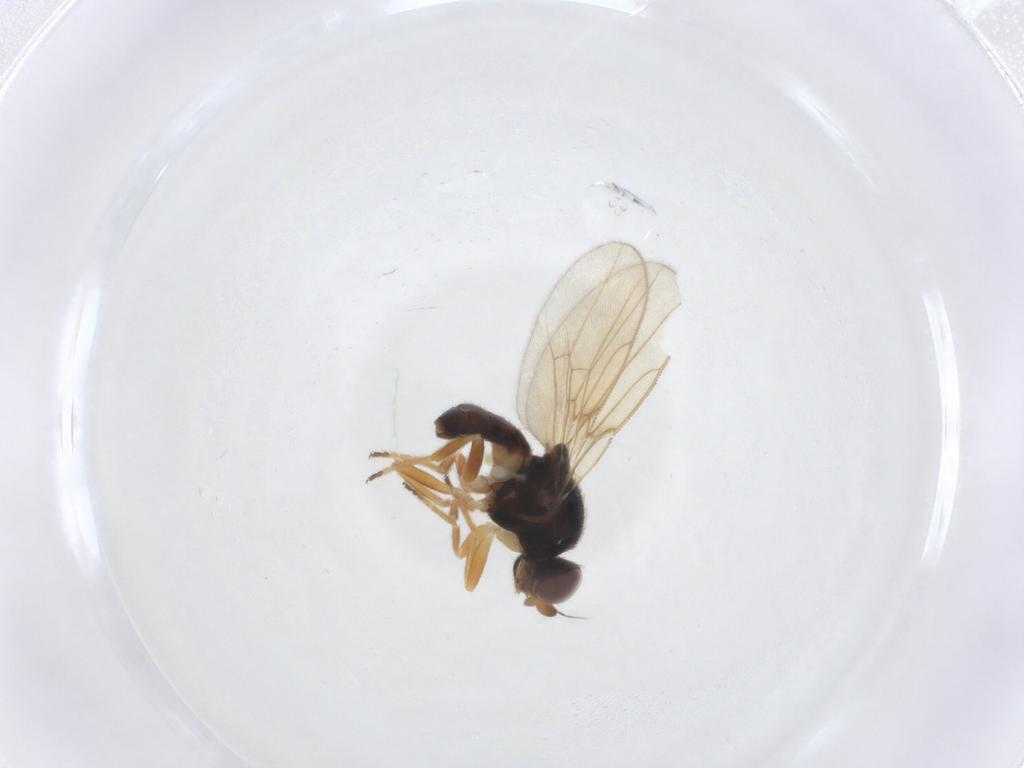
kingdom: Animalia
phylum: Arthropoda
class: Insecta
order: Diptera
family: Chloropidae
